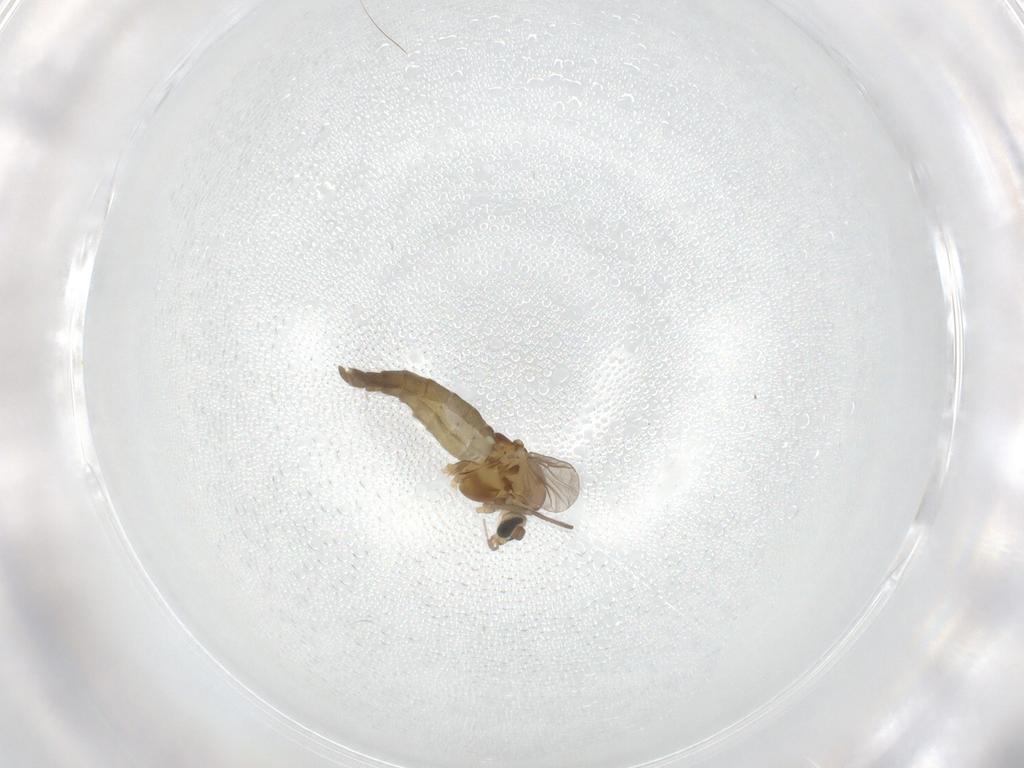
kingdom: Animalia
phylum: Arthropoda
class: Insecta
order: Diptera
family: Chironomidae
